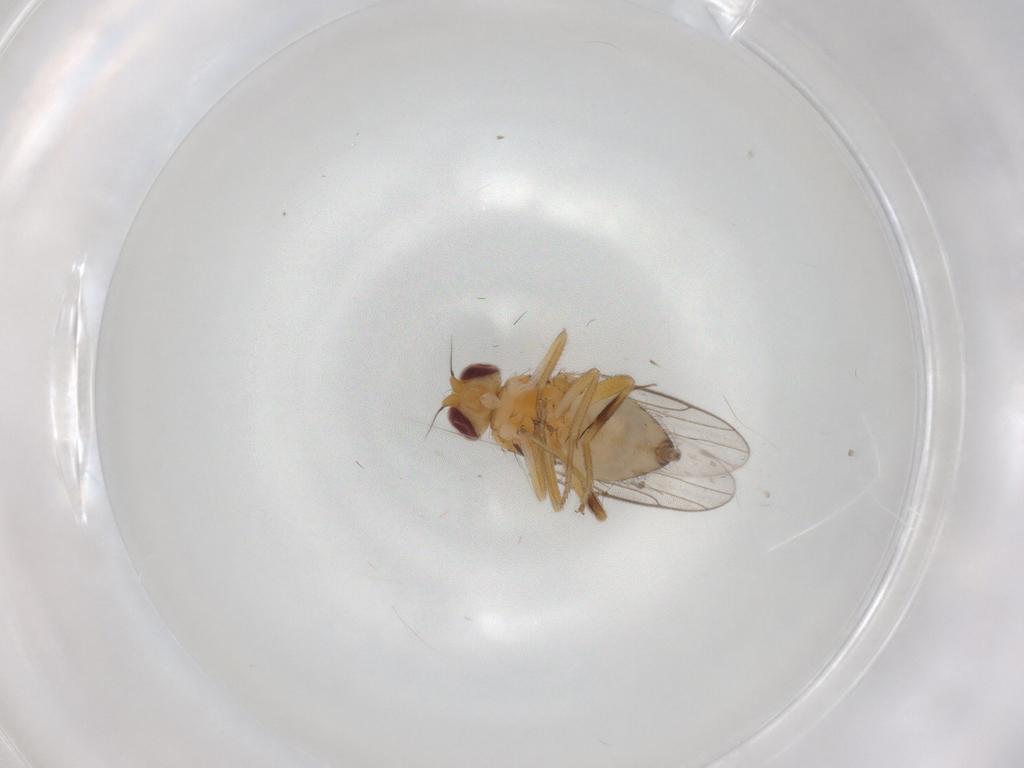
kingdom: Animalia
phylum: Arthropoda
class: Insecta
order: Diptera
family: Chloropidae
